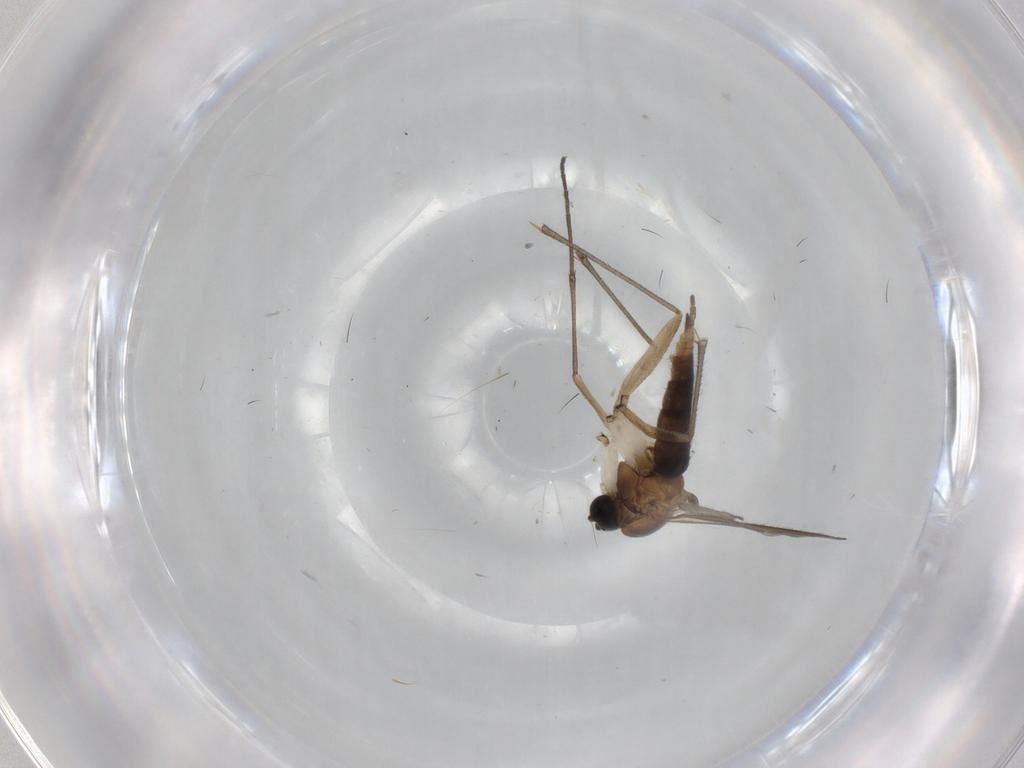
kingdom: Animalia
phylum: Arthropoda
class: Insecta
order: Diptera
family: Sciaridae
